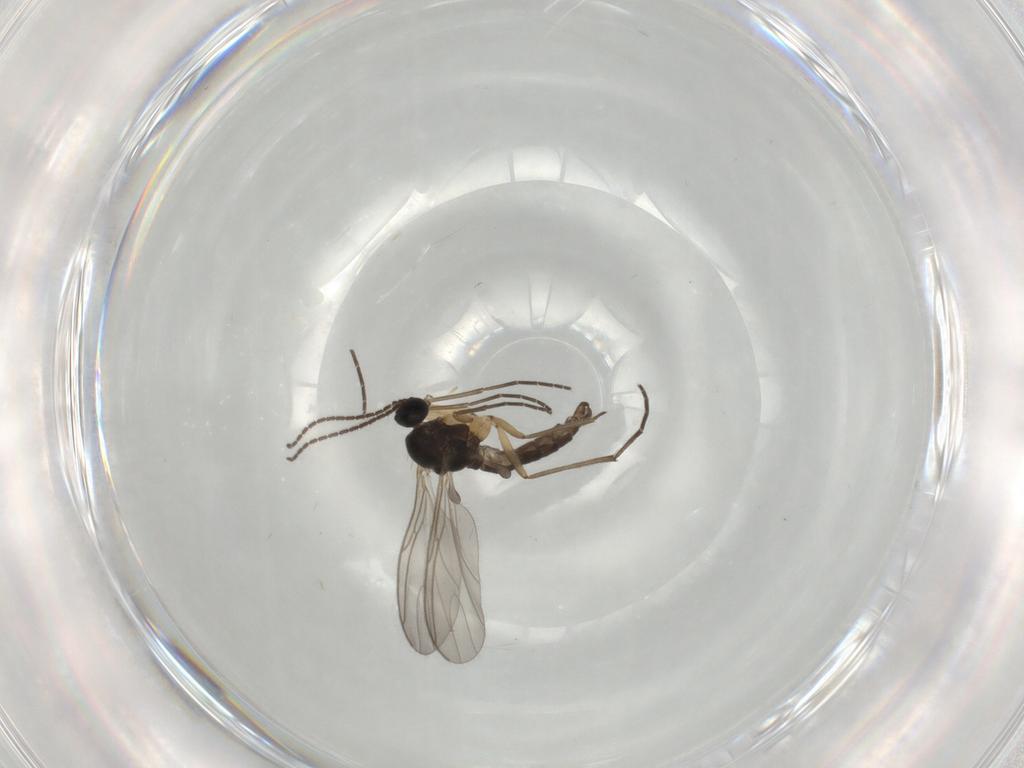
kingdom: Animalia
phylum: Arthropoda
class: Insecta
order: Diptera
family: Sciaridae
